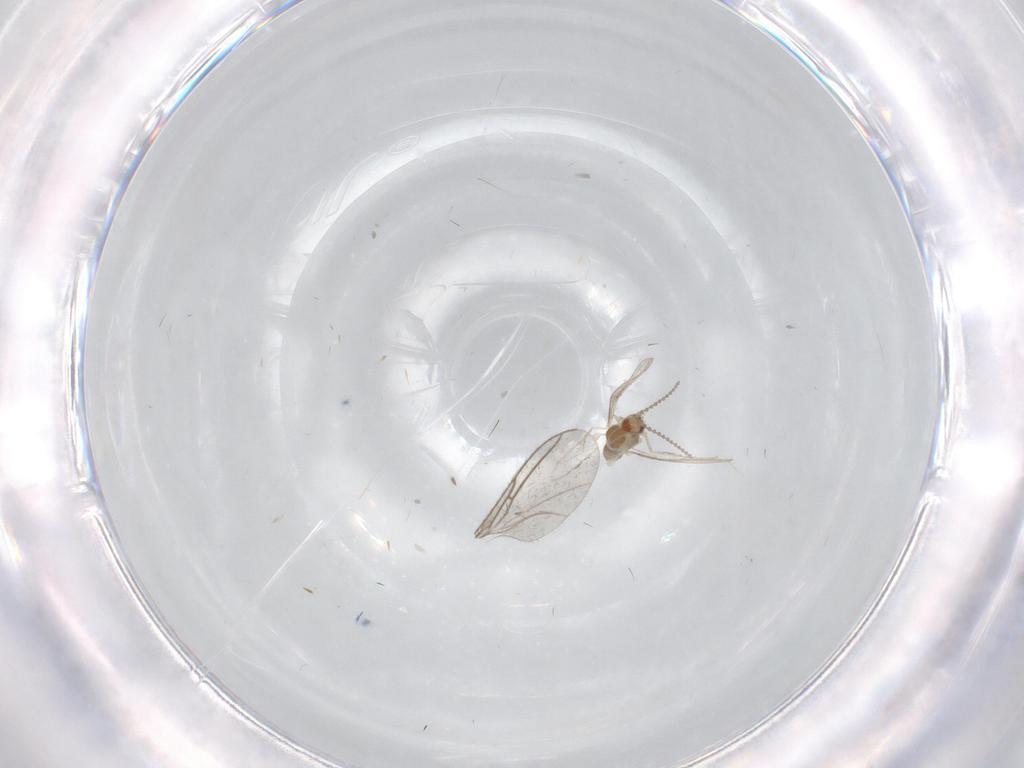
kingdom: Animalia
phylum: Arthropoda
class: Insecta
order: Diptera
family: Cecidomyiidae
